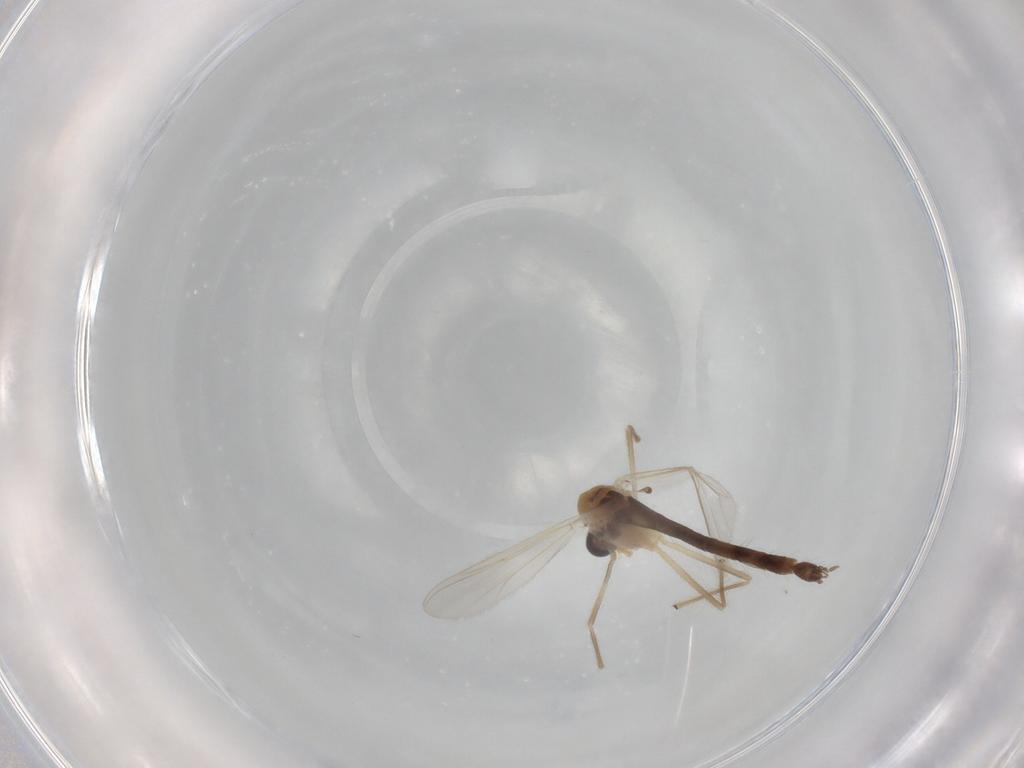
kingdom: Animalia
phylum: Arthropoda
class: Insecta
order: Diptera
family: Chironomidae
